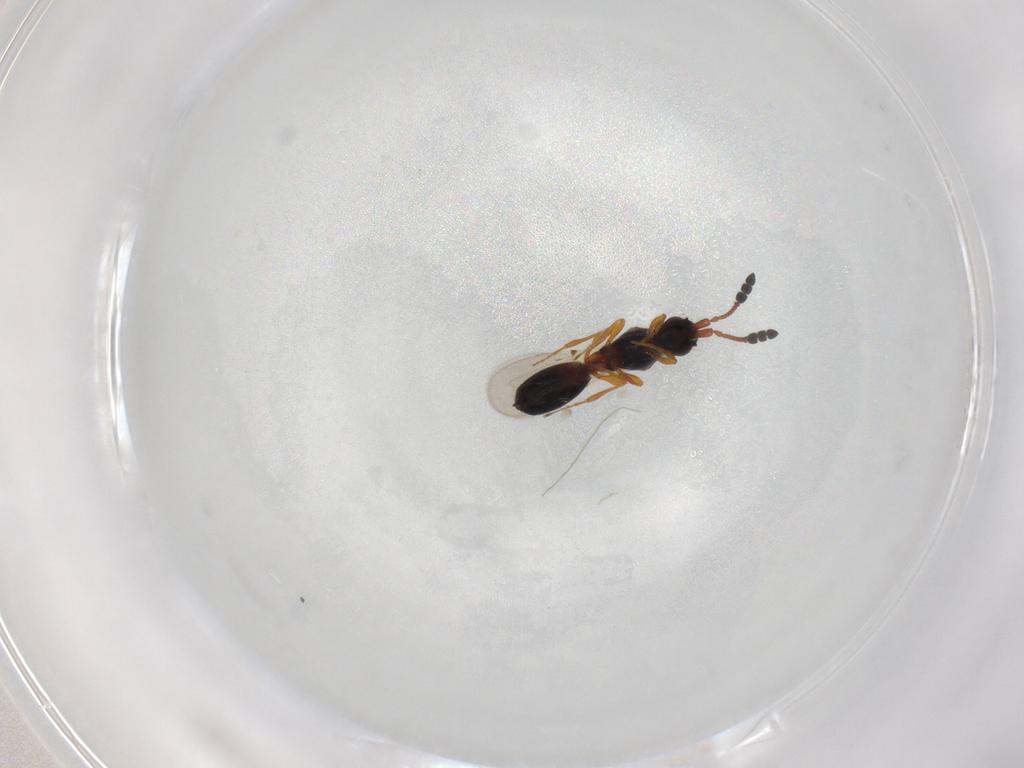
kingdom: Animalia
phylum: Arthropoda
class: Insecta
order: Hymenoptera
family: Diapriidae
